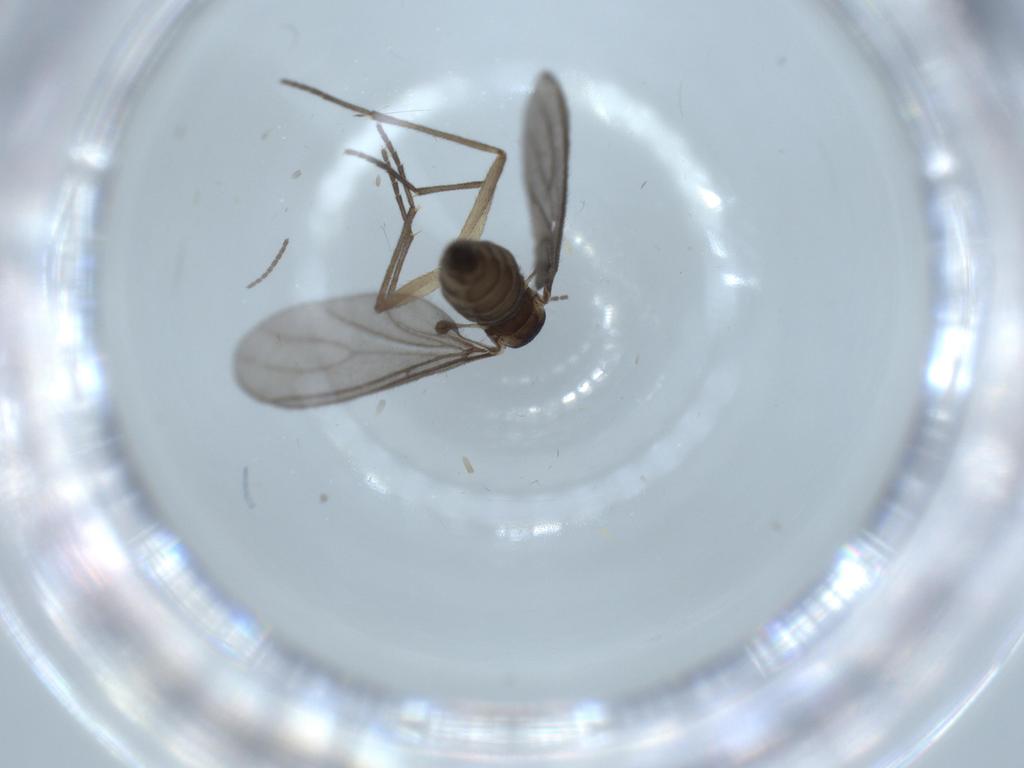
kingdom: Animalia
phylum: Arthropoda
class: Insecta
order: Diptera
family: Sciaridae
